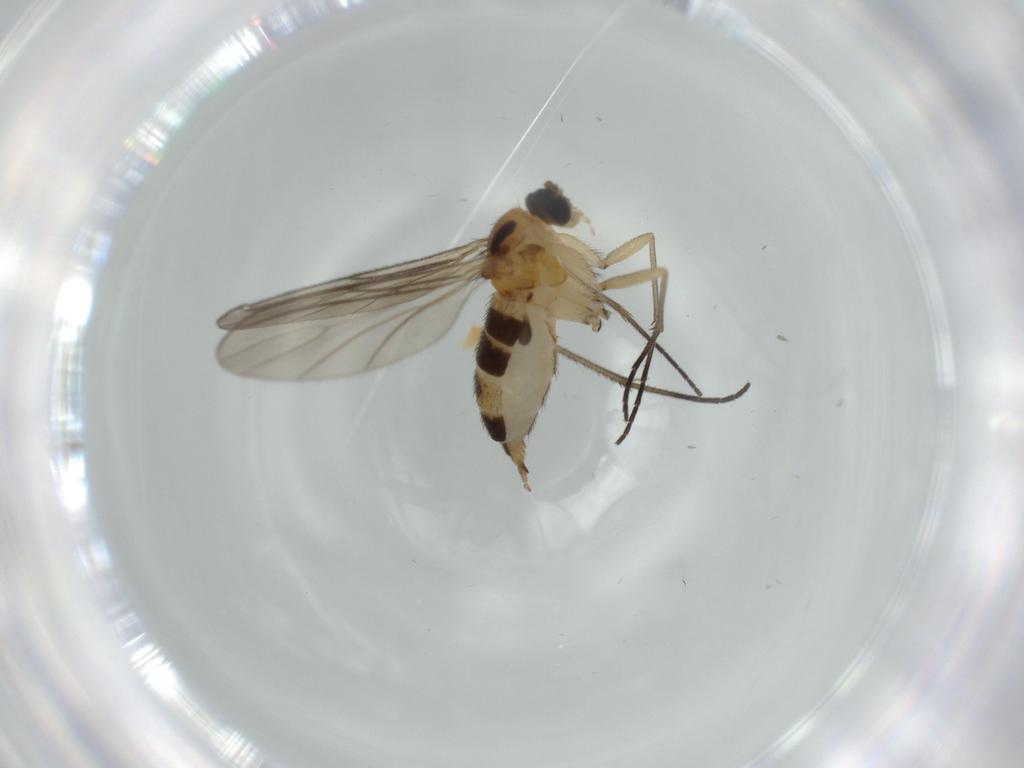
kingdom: Animalia
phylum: Arthropoda
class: Insecta
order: Diptera
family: Sciaridae
